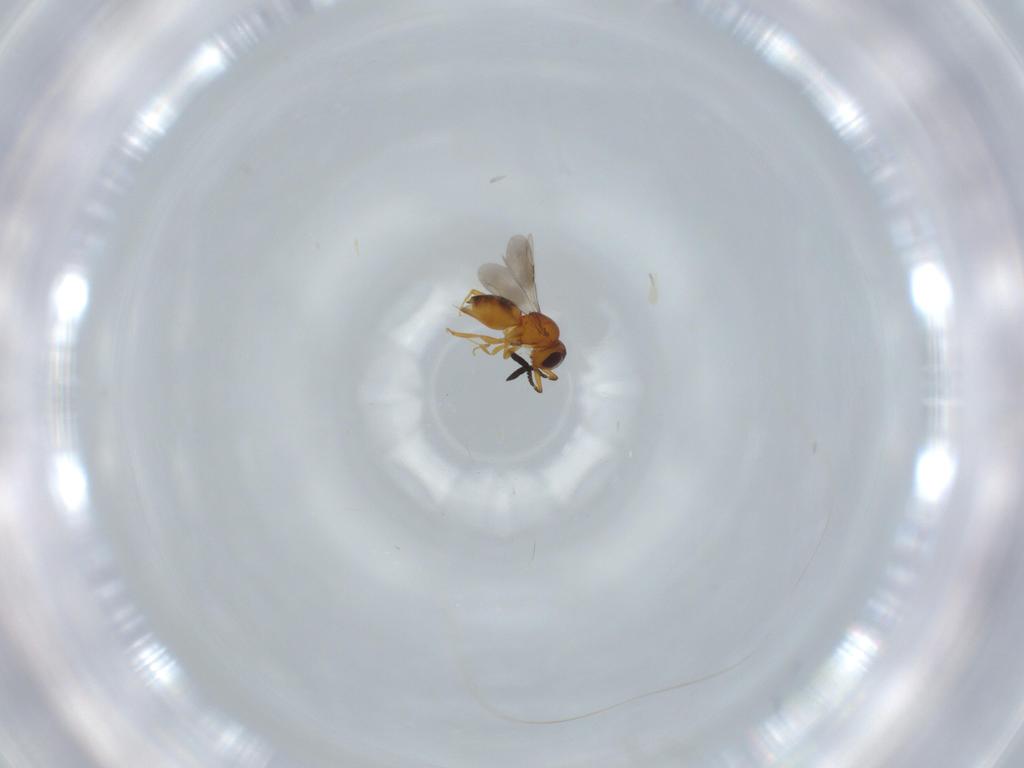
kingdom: Animalia
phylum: Arthropoda
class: Insecta
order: Hymenoptera
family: Ceraphronidae
